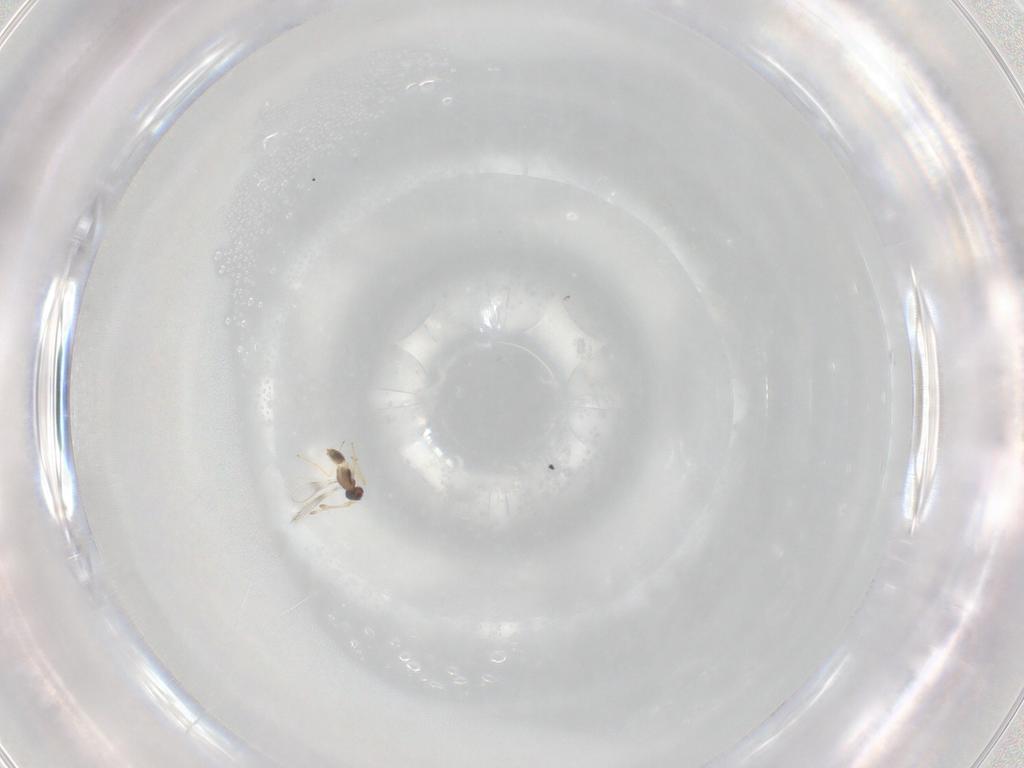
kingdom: Animalia
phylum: Arthropoda
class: Insecta
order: Hymenoptera
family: Mymaridae
